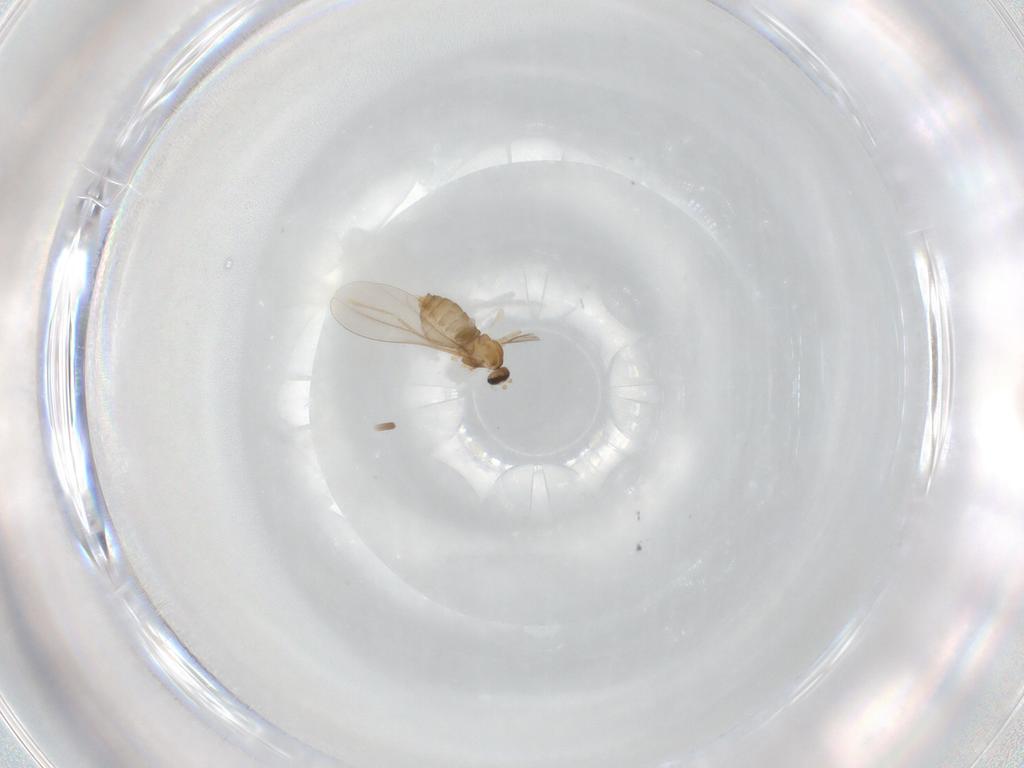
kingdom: Animalia
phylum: Arthropoda
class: Insecta
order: Diptera
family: Cecidomyiidae
